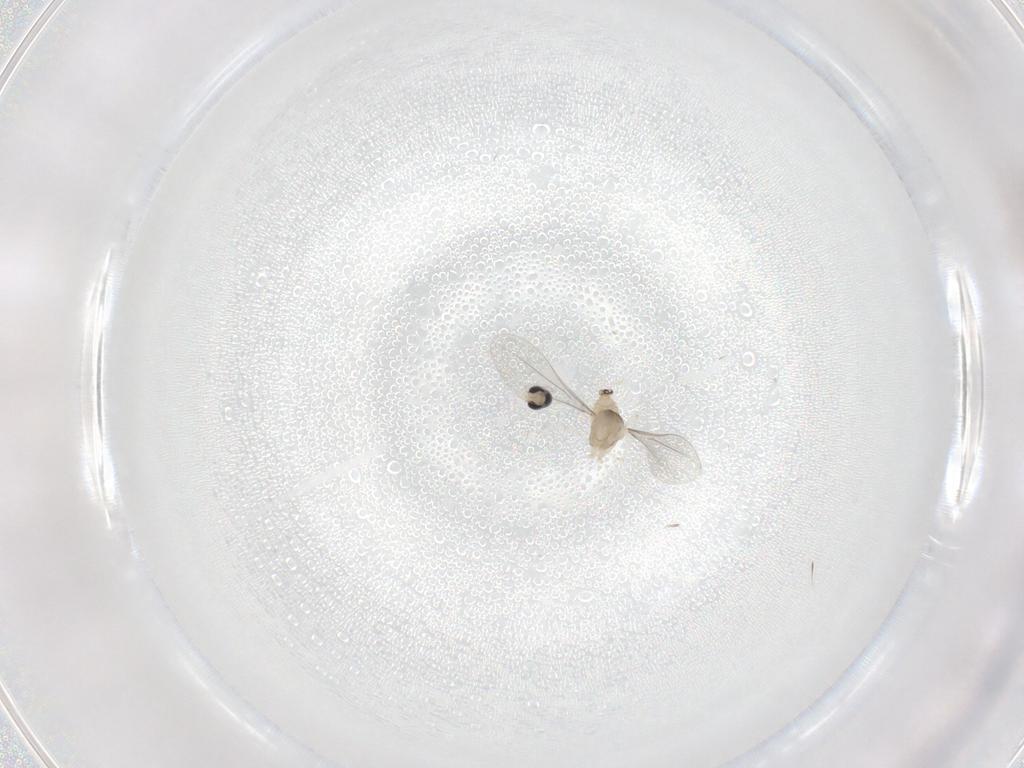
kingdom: Animalia
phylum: Arthropoda
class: Insecta
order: Diptera
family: Cecidomyiidae
